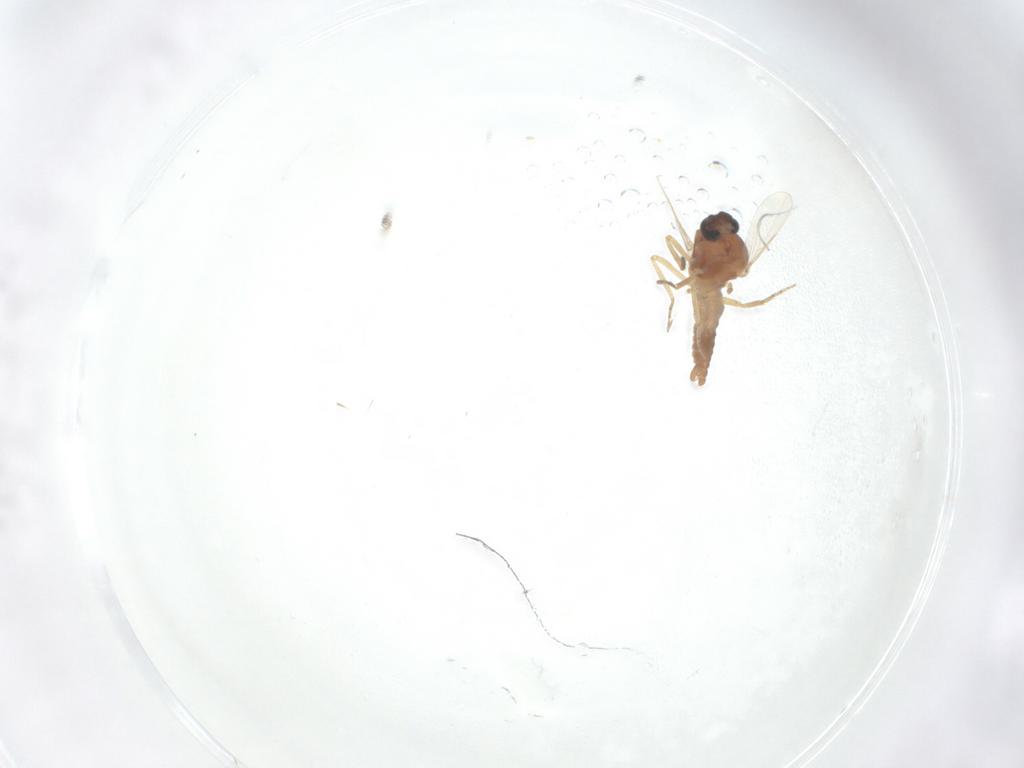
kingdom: Animalia
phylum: Arthropoda
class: Insecta
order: Diptera
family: Ceratopogonidae
